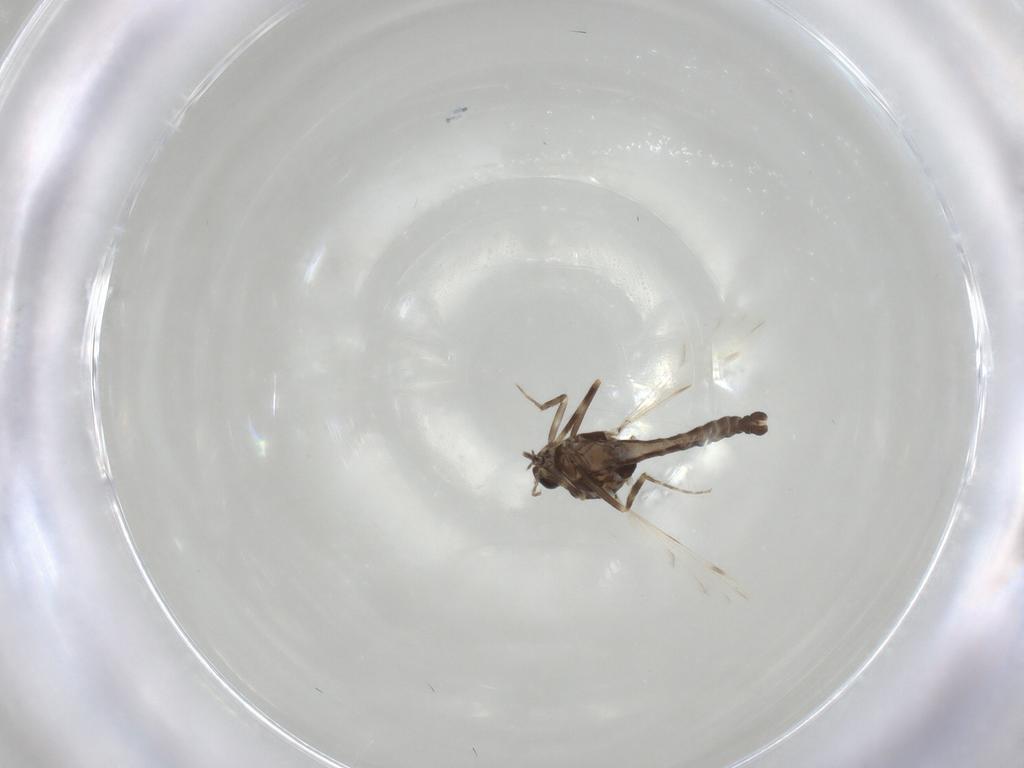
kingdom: Animalia
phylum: Arthropoda
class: Insecta
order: Diptera
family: Ceratopogonidae
